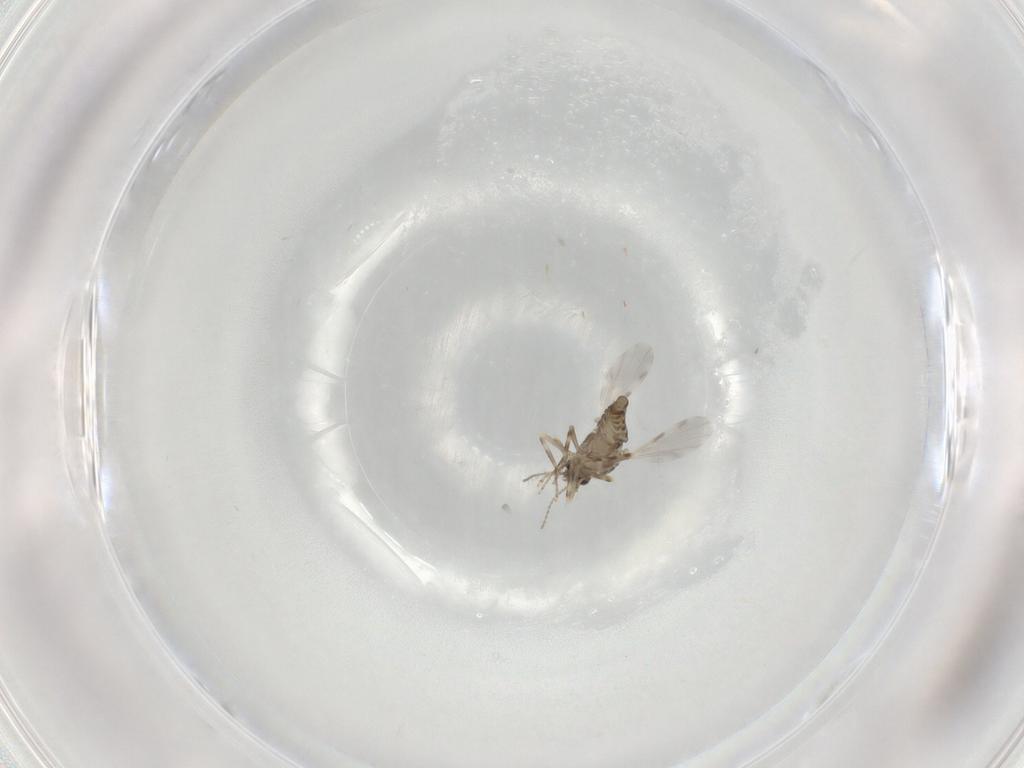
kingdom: Animalia
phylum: Arthropoda
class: Insecta
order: Diptera
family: Ceratopogonidae
